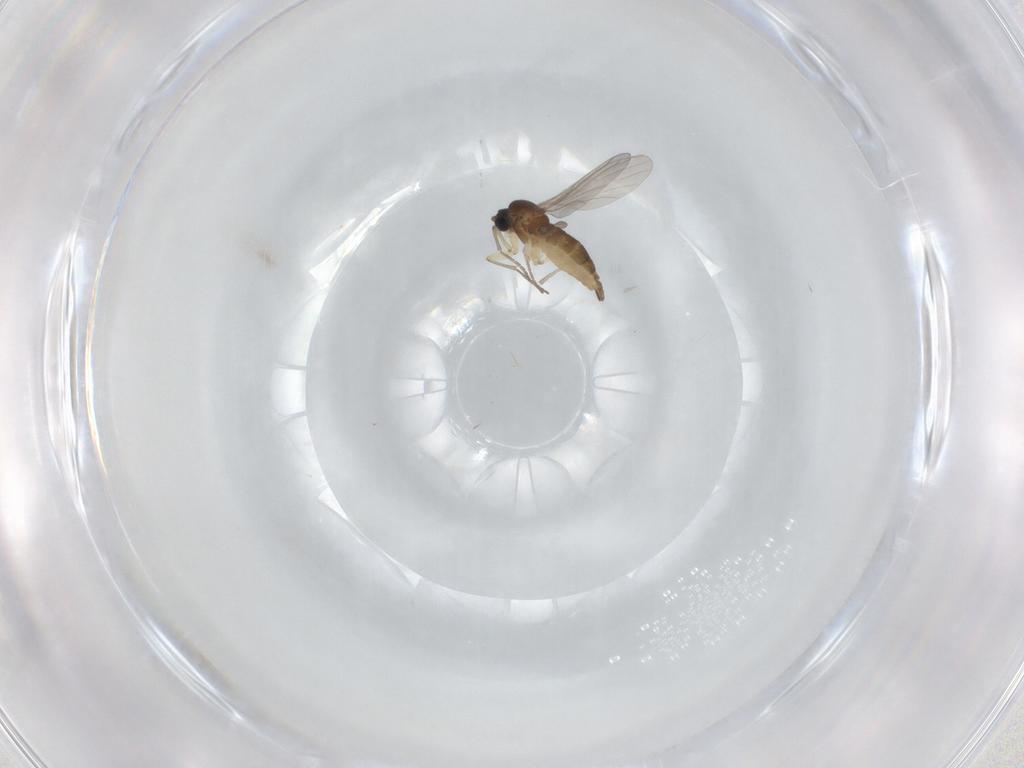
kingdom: Animalia
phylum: Arthropoda
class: Insecta
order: Diptera
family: Sciaridae
